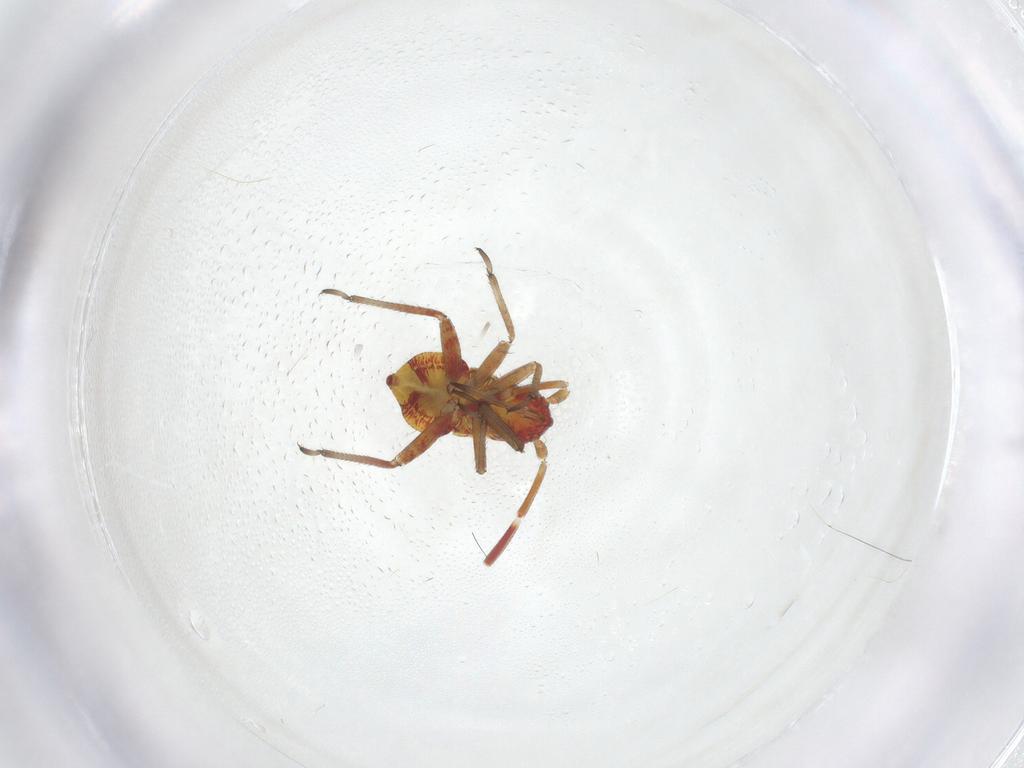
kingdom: Animalia
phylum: Arthropoda
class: Insecta
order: Hemiptera
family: Miridae
